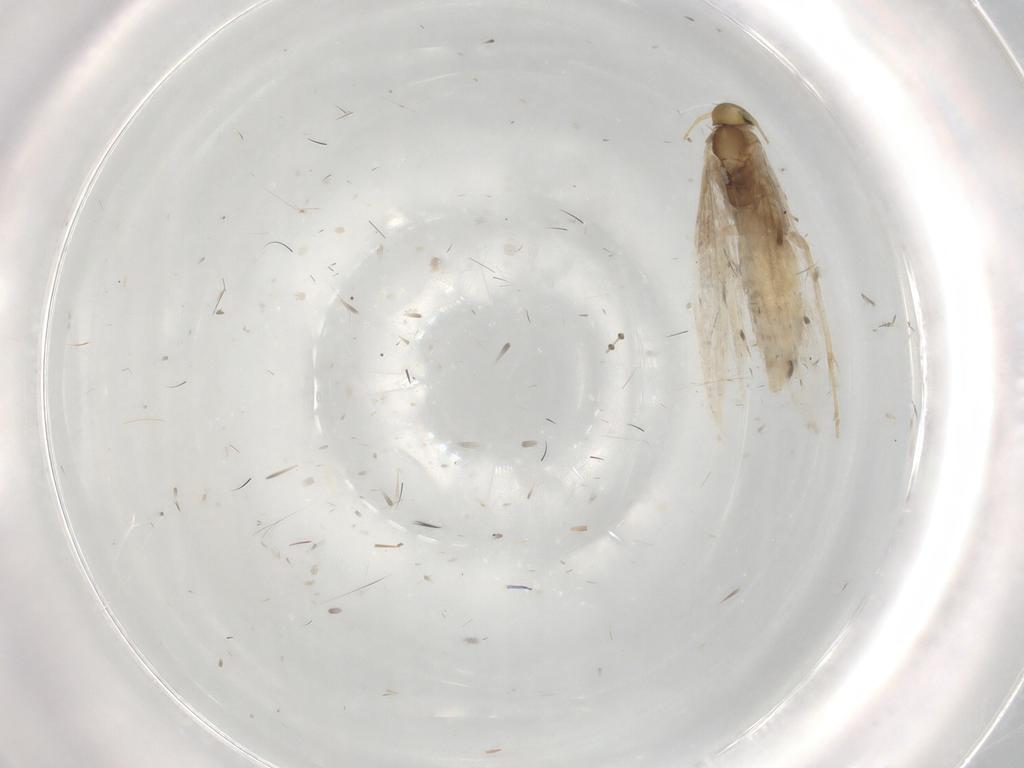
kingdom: Animalia
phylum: Arthropoda
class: Insecta
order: Lepidoptera
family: Gracillariidae
